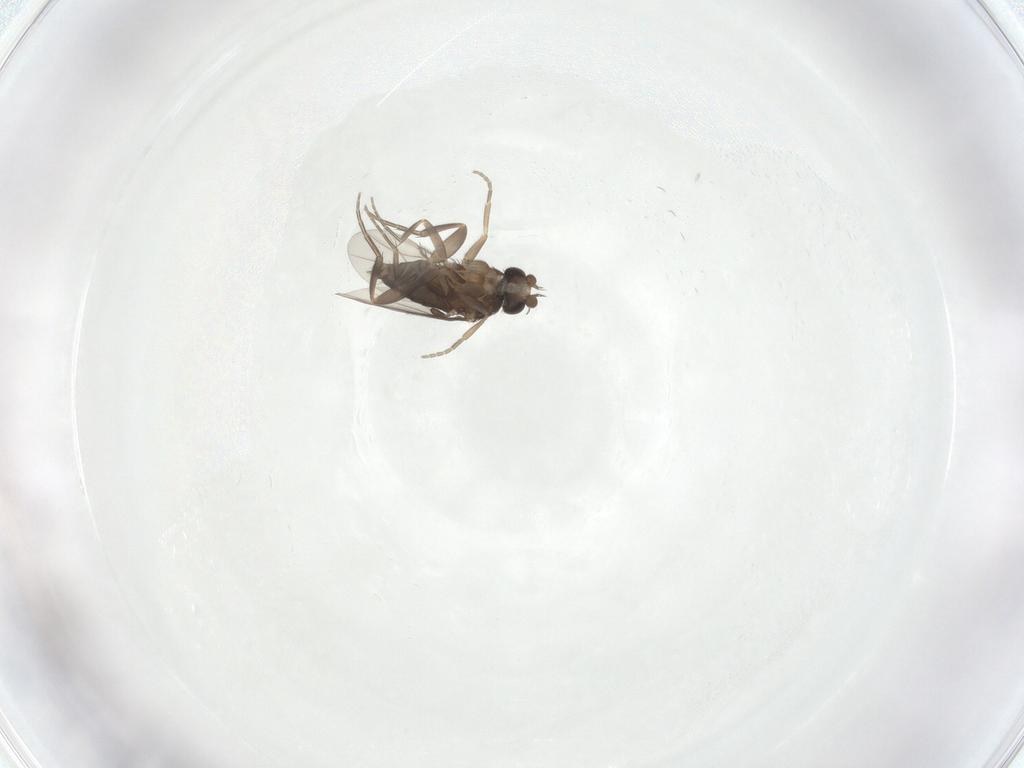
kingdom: Animalia
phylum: Arthropoda
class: Insecta
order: Diptera
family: Phoridae
